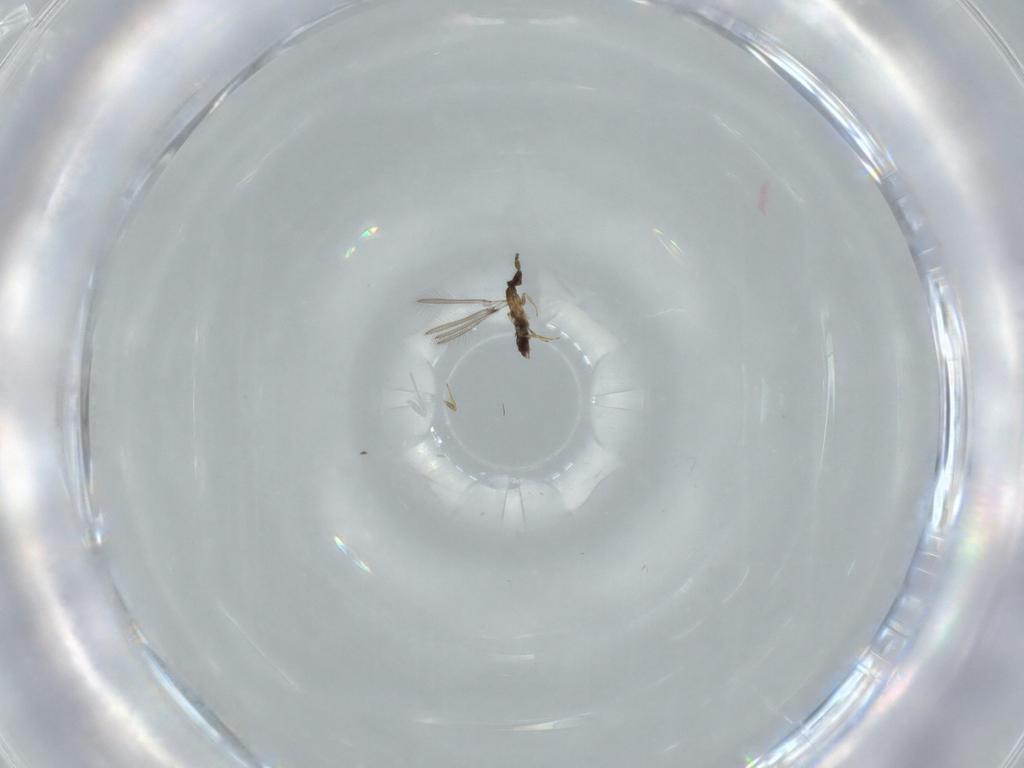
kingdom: Animalia
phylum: Arthropoda
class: Insecta
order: Hymenoptera
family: Mymaridae
